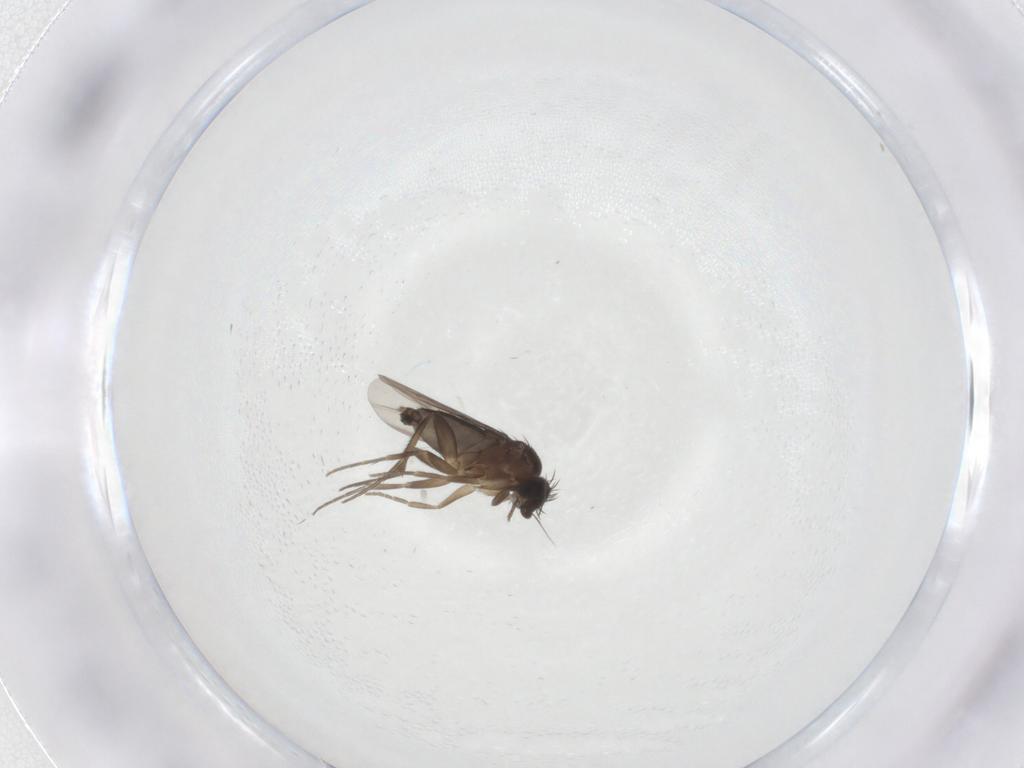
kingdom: Animalia
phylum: Arthropoda
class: Insecta
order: Diptera
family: Phoridae
